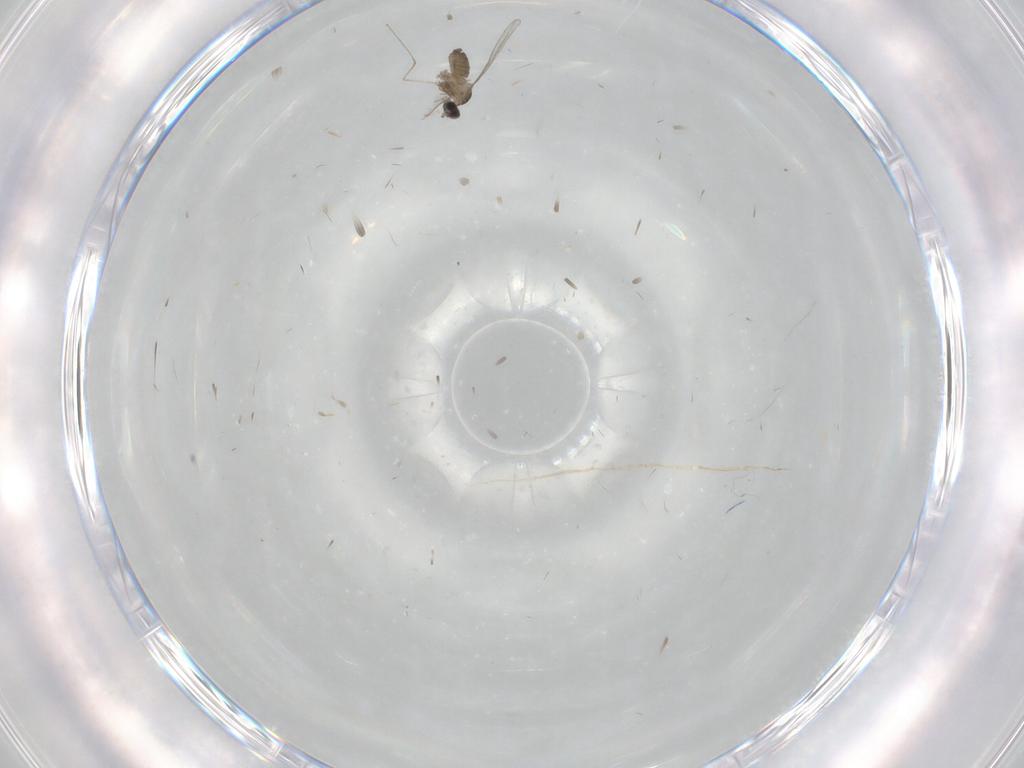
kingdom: Animalia
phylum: Arthropoda
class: Insecta
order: Diptera
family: Cecidomyiidae
